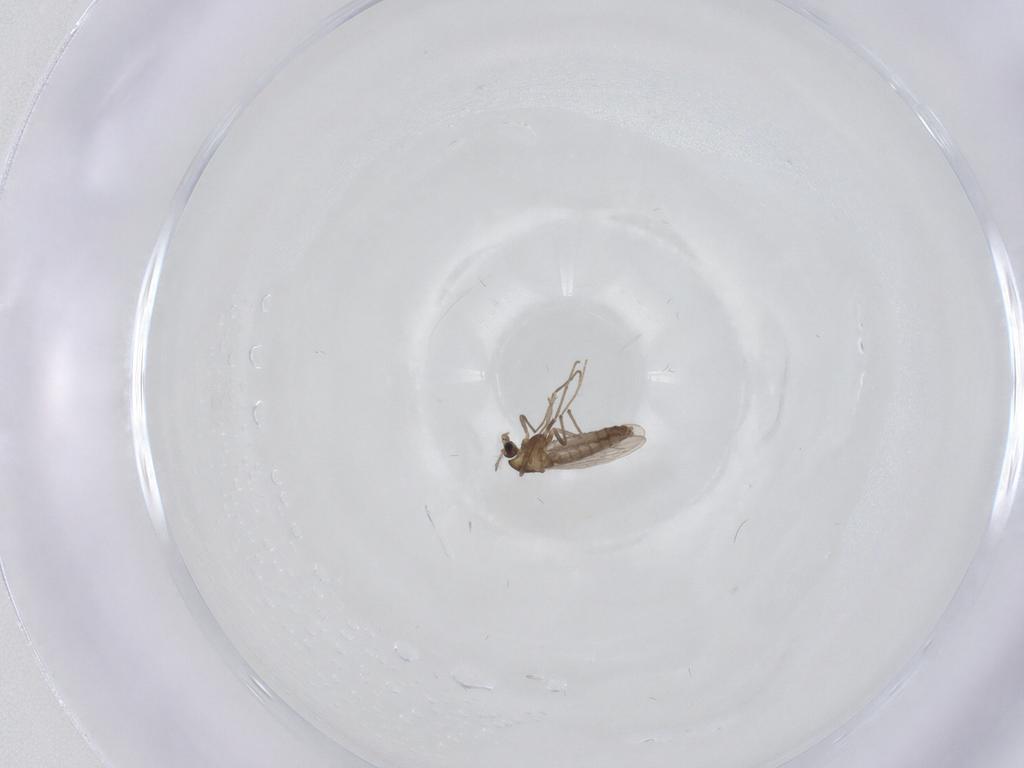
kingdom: Animalia
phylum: Arthropoda
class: Insecta
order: Diptera
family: Chironomidae
